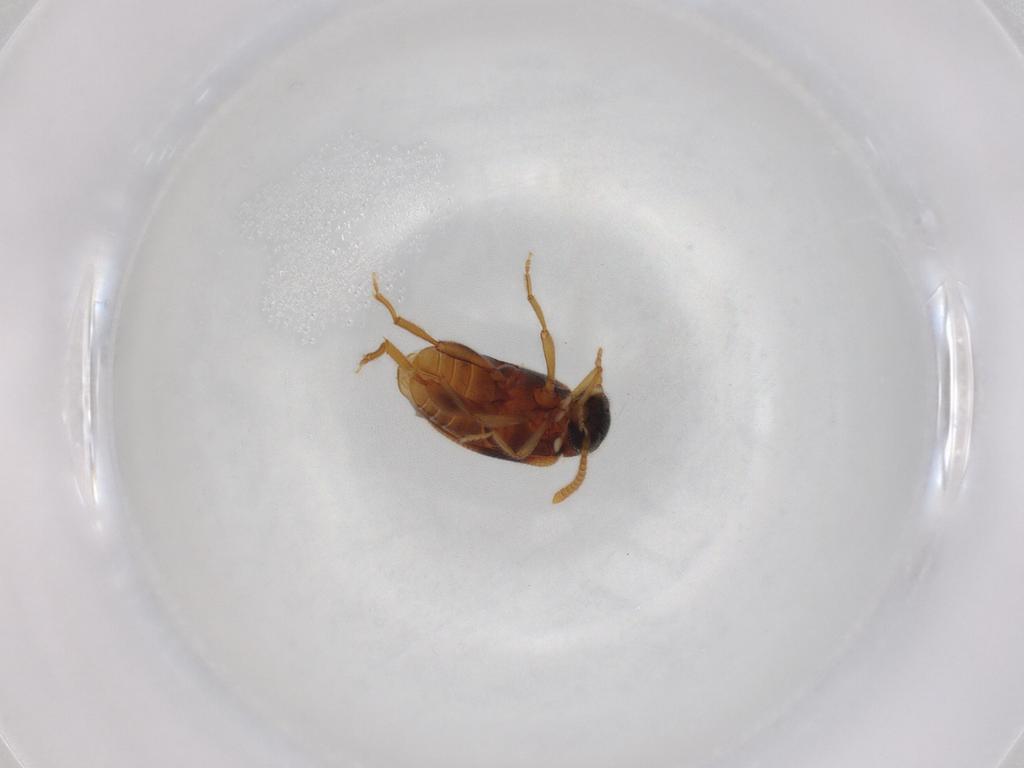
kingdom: Animalia
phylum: Arthropoda
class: Insecta
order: Coleoptera
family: Aderidae
